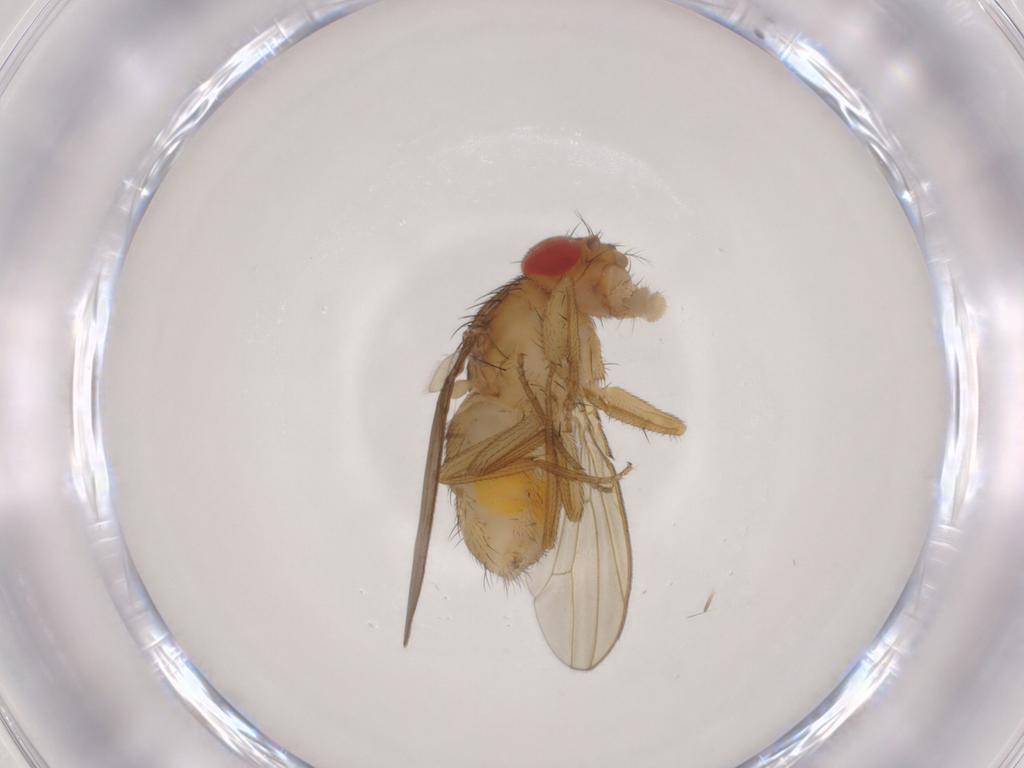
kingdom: Animalia
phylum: Arthropoda
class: Insecta
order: Diptera
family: Drosophilidae
